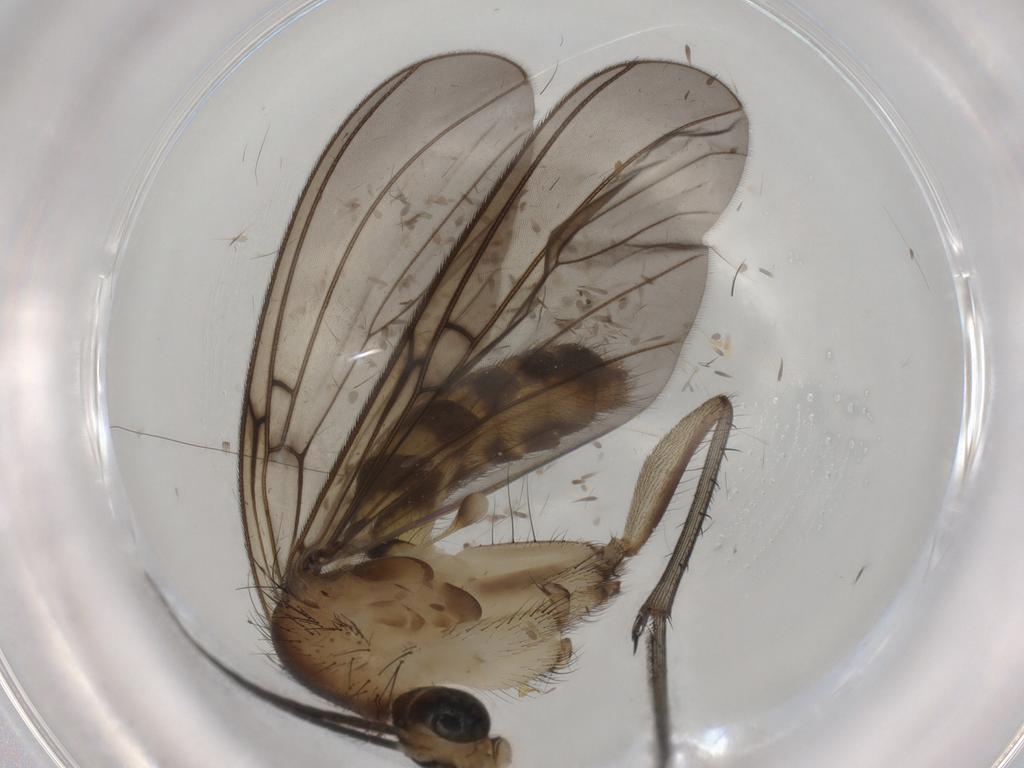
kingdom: Animalia
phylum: Arthropoda
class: Insecta
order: Diptera
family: Mycetophilidae
